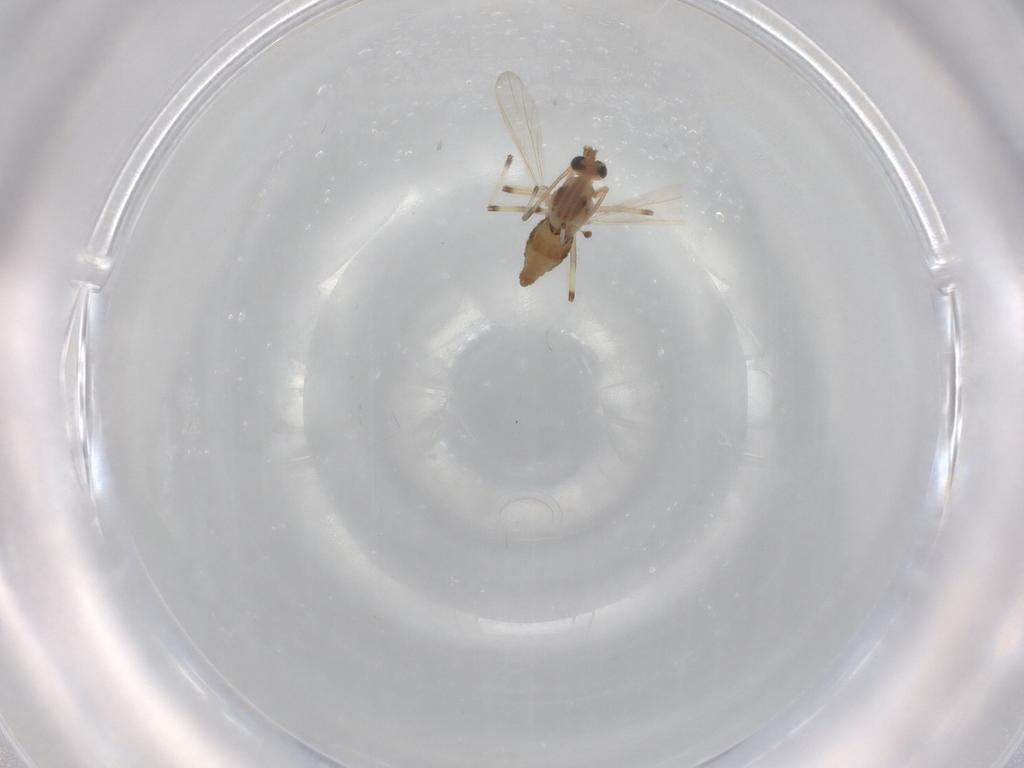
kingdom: Animalia
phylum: Arthropoda
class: Insecta
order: Diptera
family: Chironomidae
